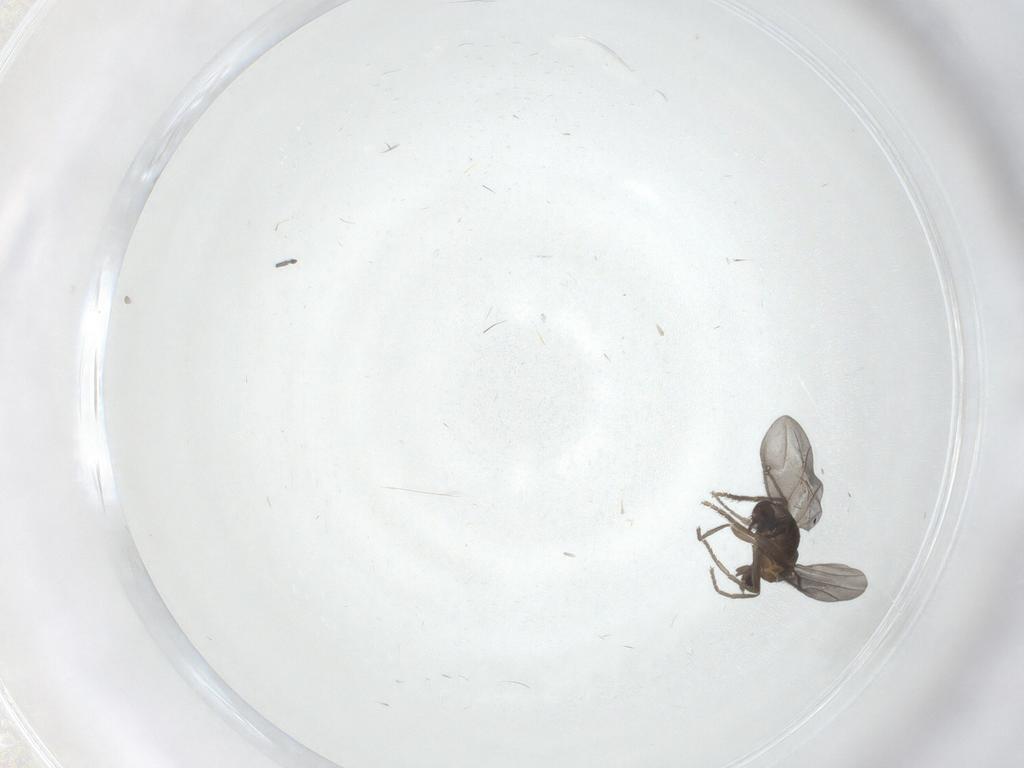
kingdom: Animalia
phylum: Arthropoda
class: Insecta
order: Diptera
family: Phoridae
